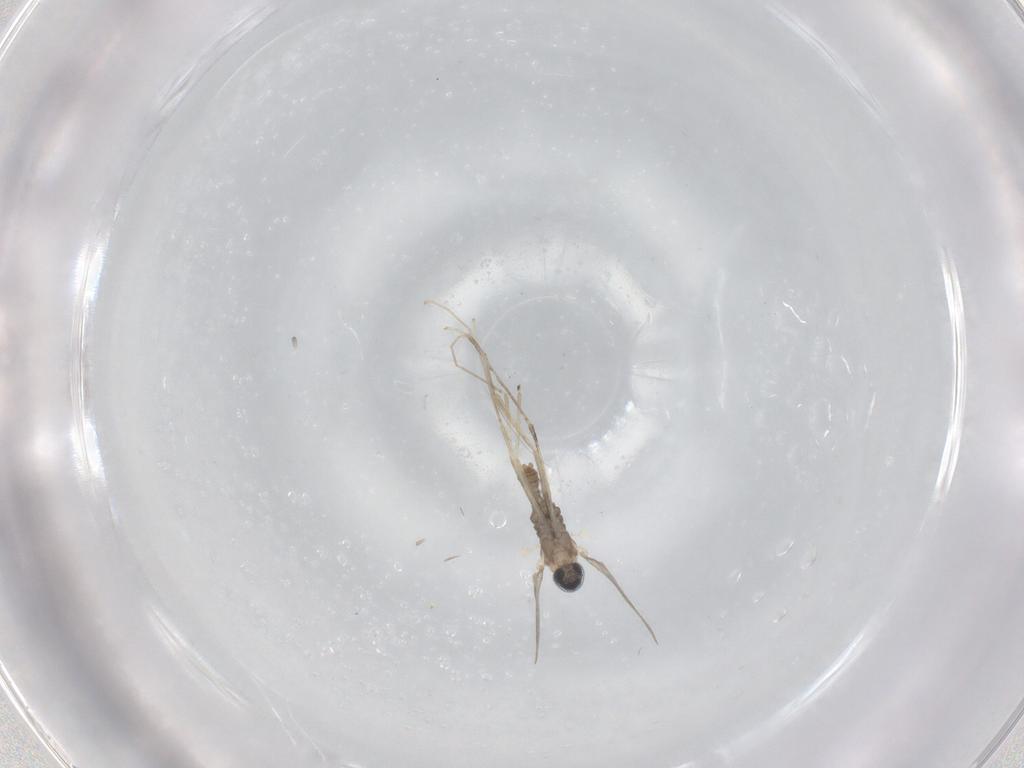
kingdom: Animalia
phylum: Arthropoda
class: Insecta
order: Diptera
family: Cecidomyiidae
